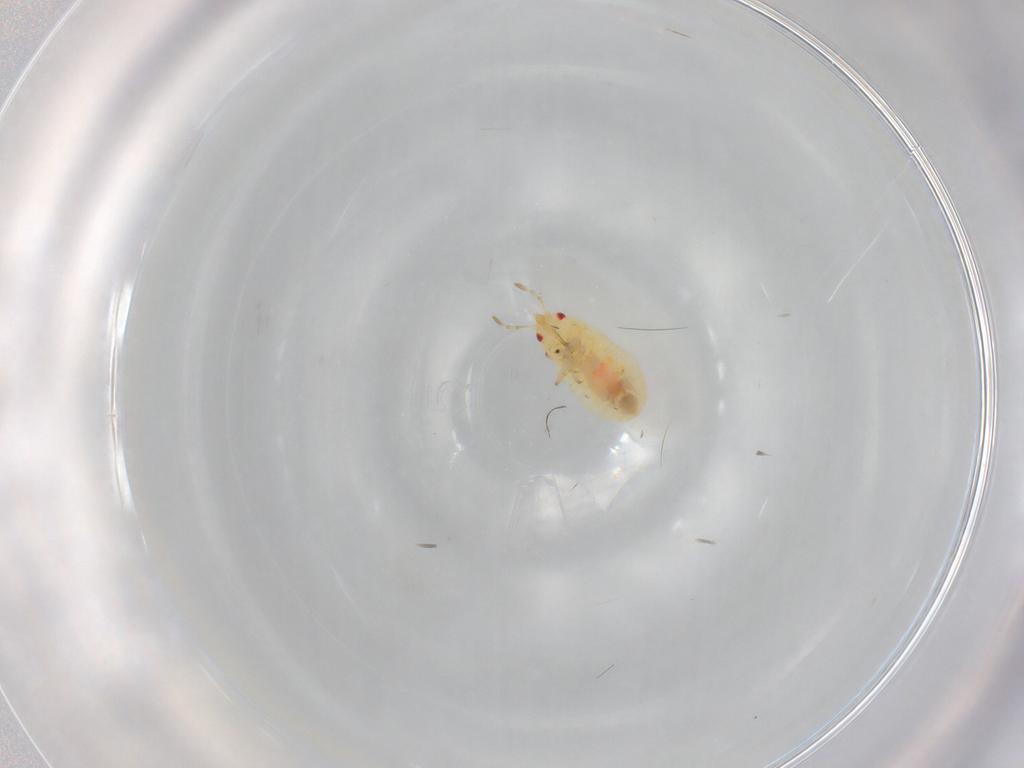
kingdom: Animalia
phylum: Arthropoda
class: Insecta
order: Hemiptera
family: Anthocoridae
